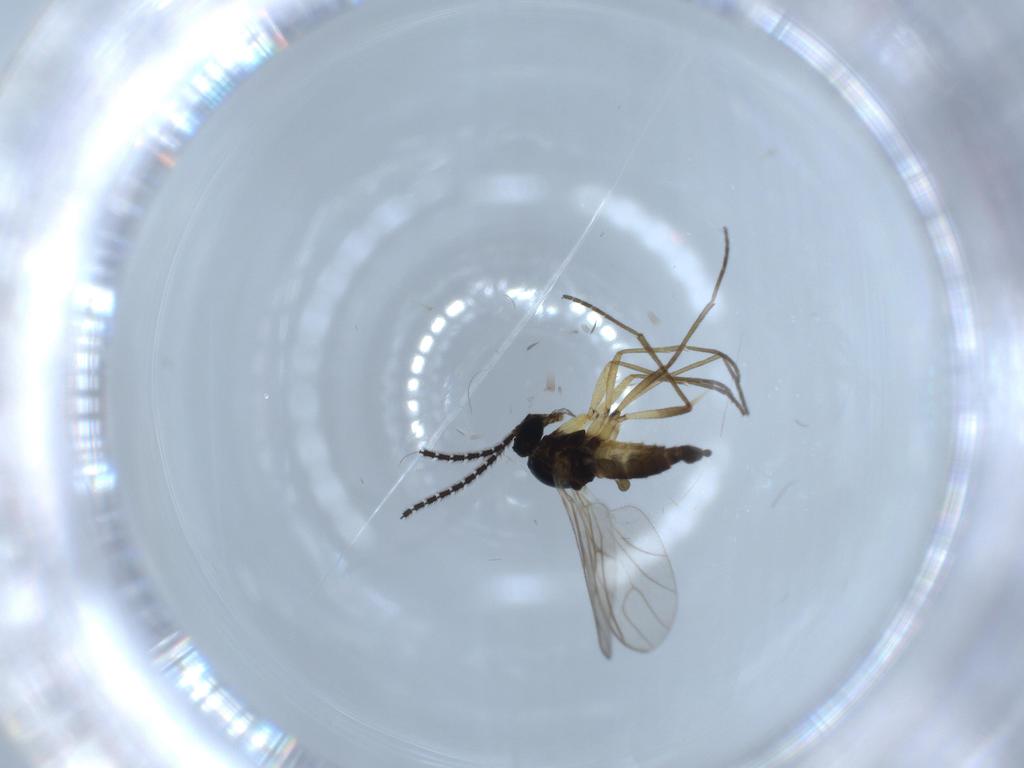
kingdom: Animalia
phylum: Arthropoda
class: Insecta
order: Diptera
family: Sciaridae
